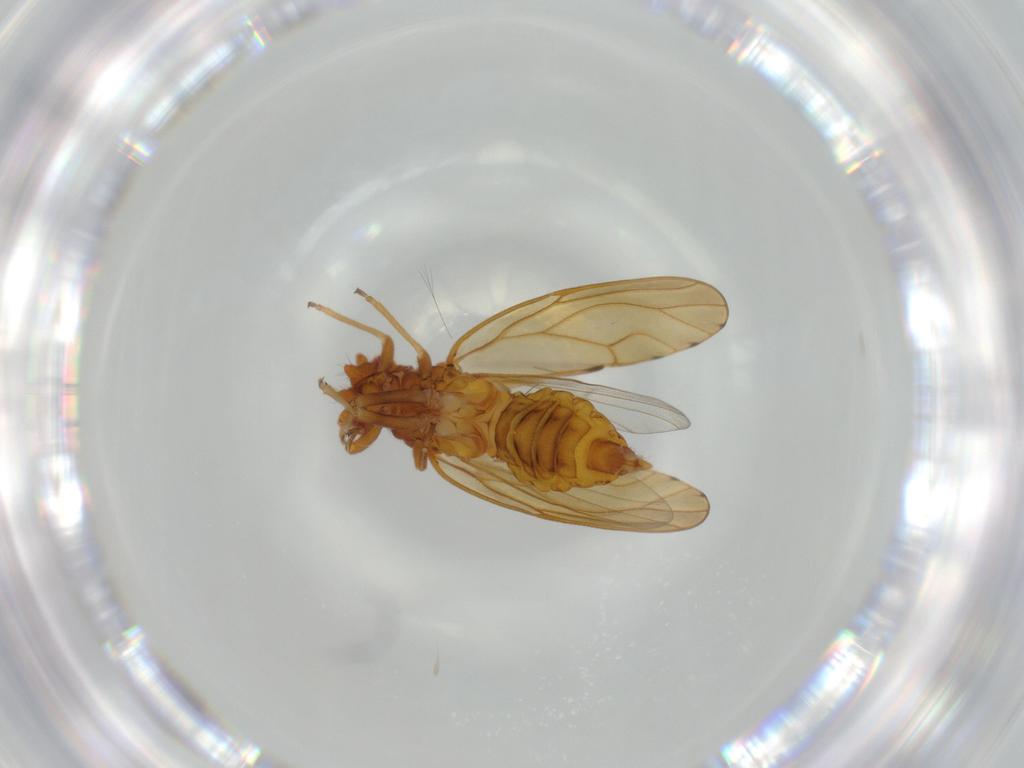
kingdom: Animalia
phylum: Arthropoda
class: Insecta
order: Hemiptera
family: Psylloidea_incertae_sedis
